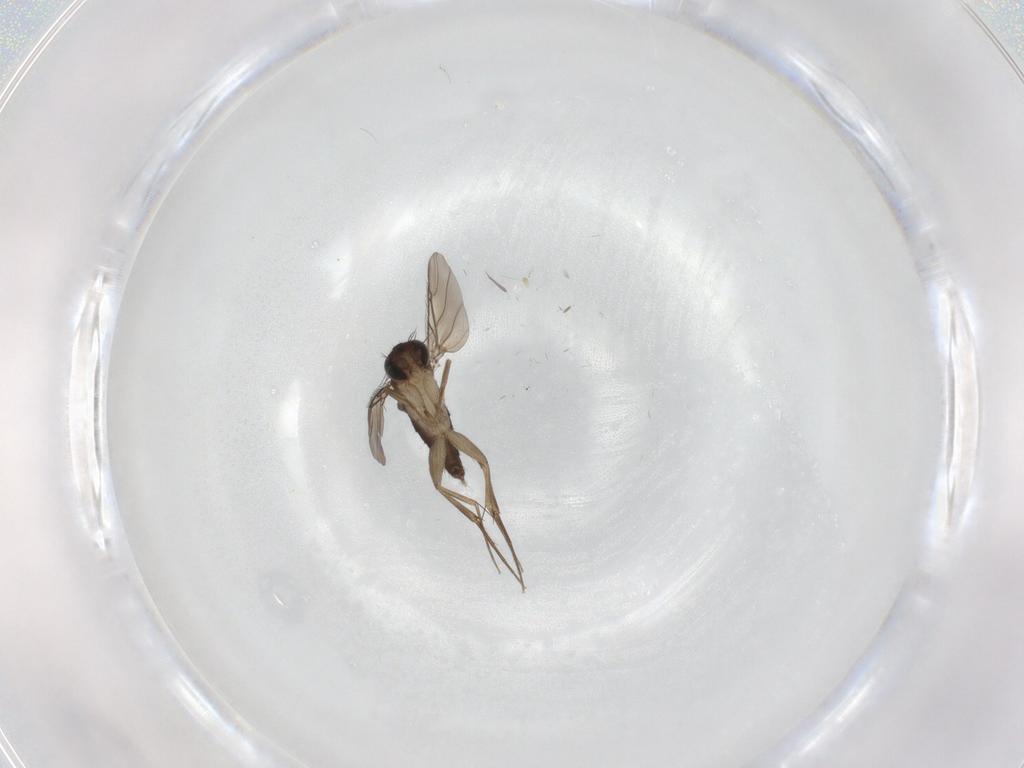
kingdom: Animalia
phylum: Arthropoda
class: Insecta
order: Diptera
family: Phoridae
